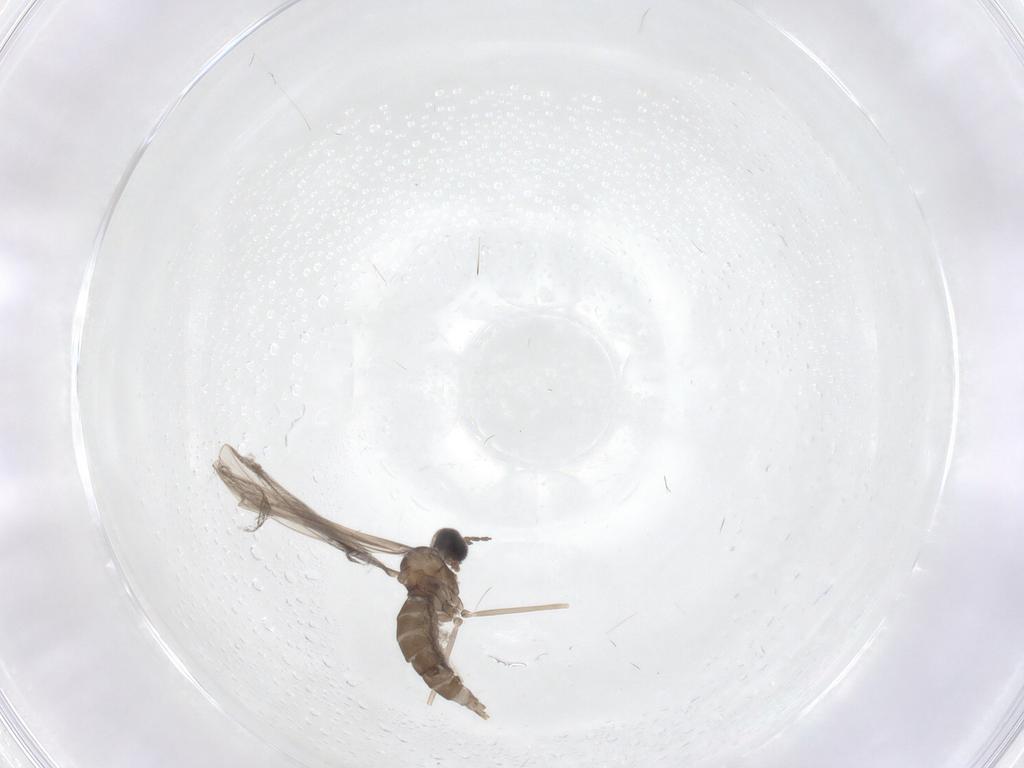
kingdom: Animalia
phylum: Arthropoda
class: Insecta
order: Diptera
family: Cecidomyiidae
